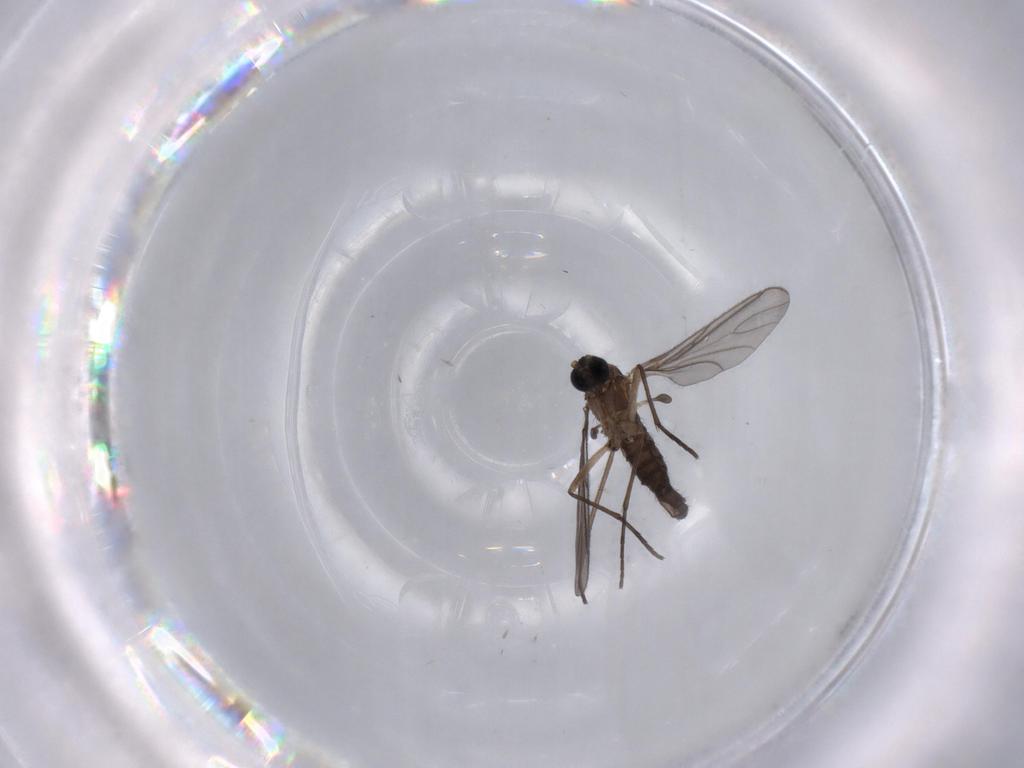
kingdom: Animalia
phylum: Arthropoda
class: Insecta
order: Diptera
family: Sciaridae
